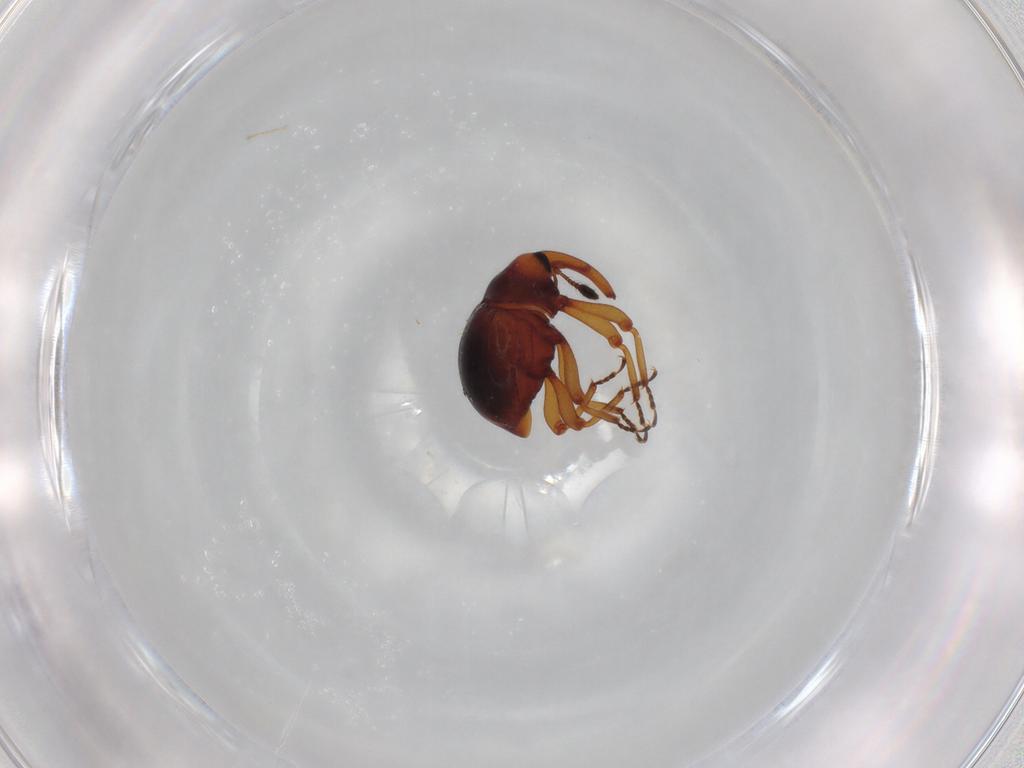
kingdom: Animalia
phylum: Arthropoda
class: Insecta
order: Coleoptera
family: Curculionidae
